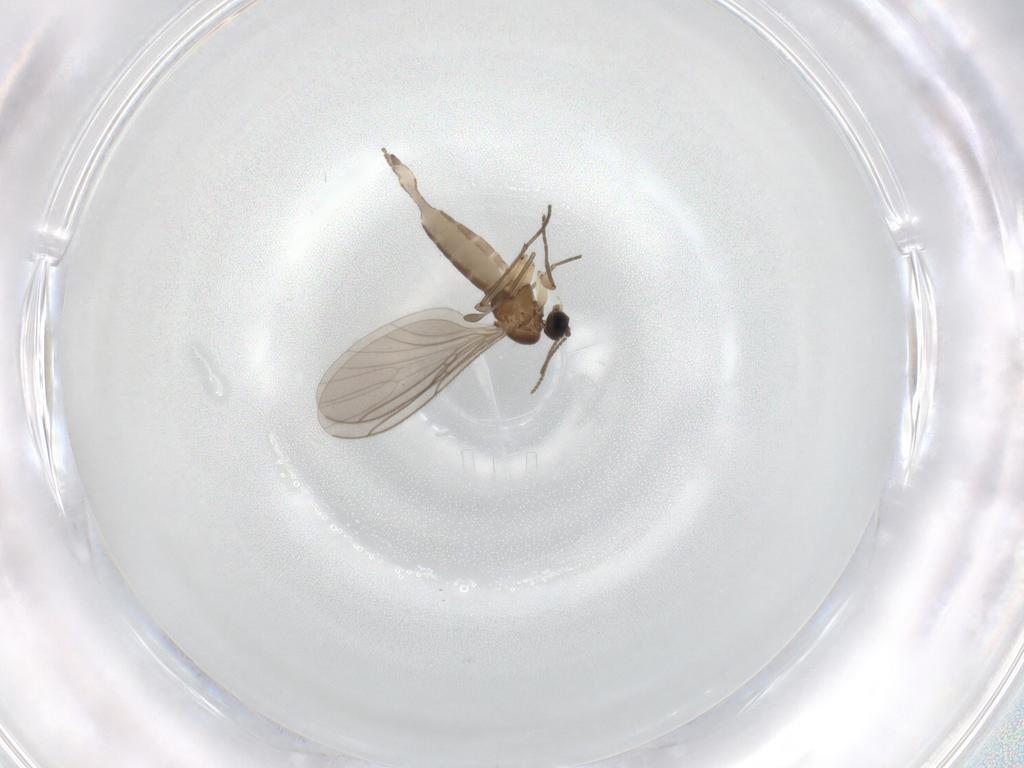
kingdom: Animalia
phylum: Arthropoda
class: Insecta
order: Diptera
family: Sciaridae
